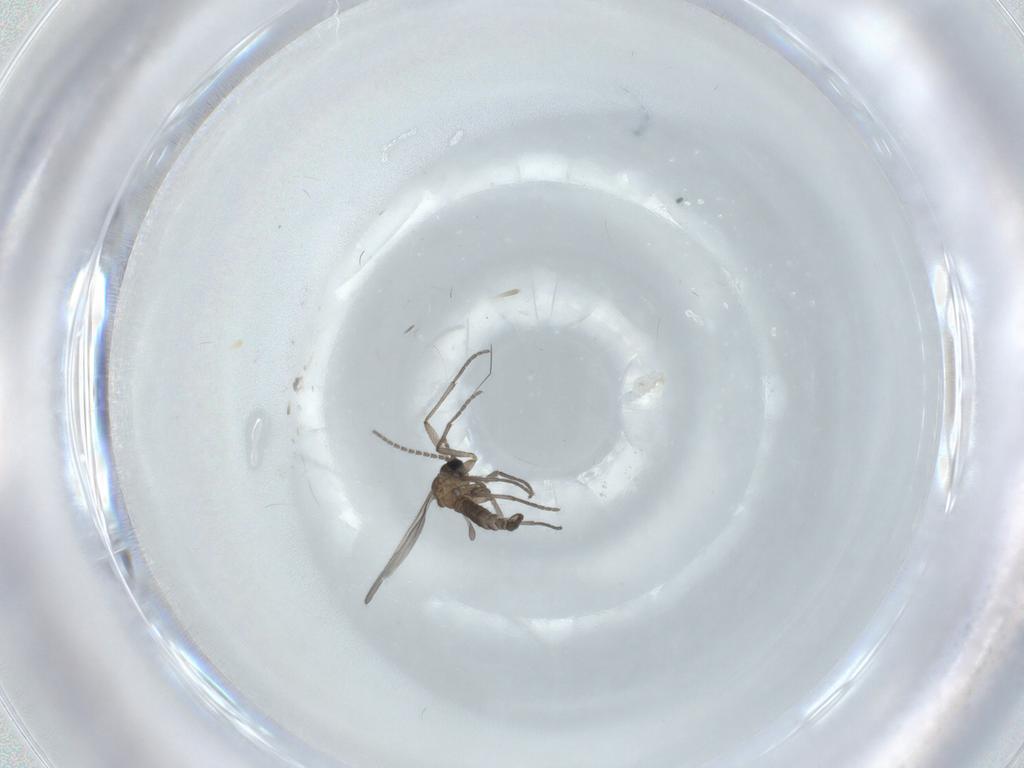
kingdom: Animalia
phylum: Arthropoda
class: Insecta
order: Diptera
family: Sciaridae
